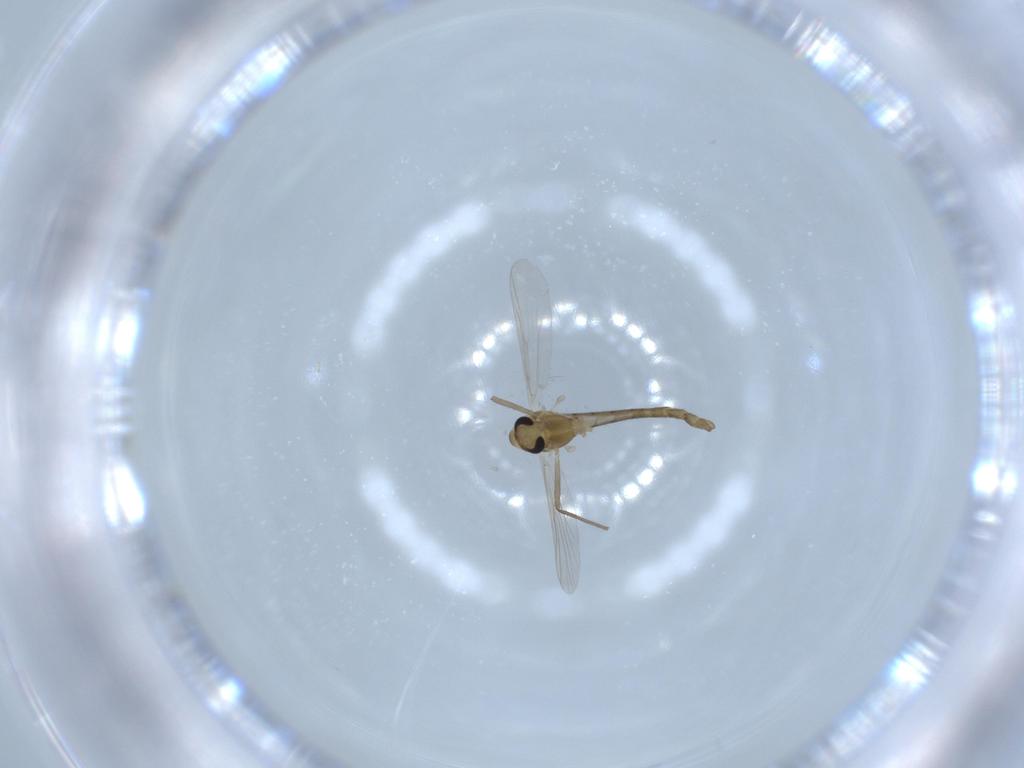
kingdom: Animalia
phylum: Arthropoda
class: Insecta
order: Diptera
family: Chironomidae
